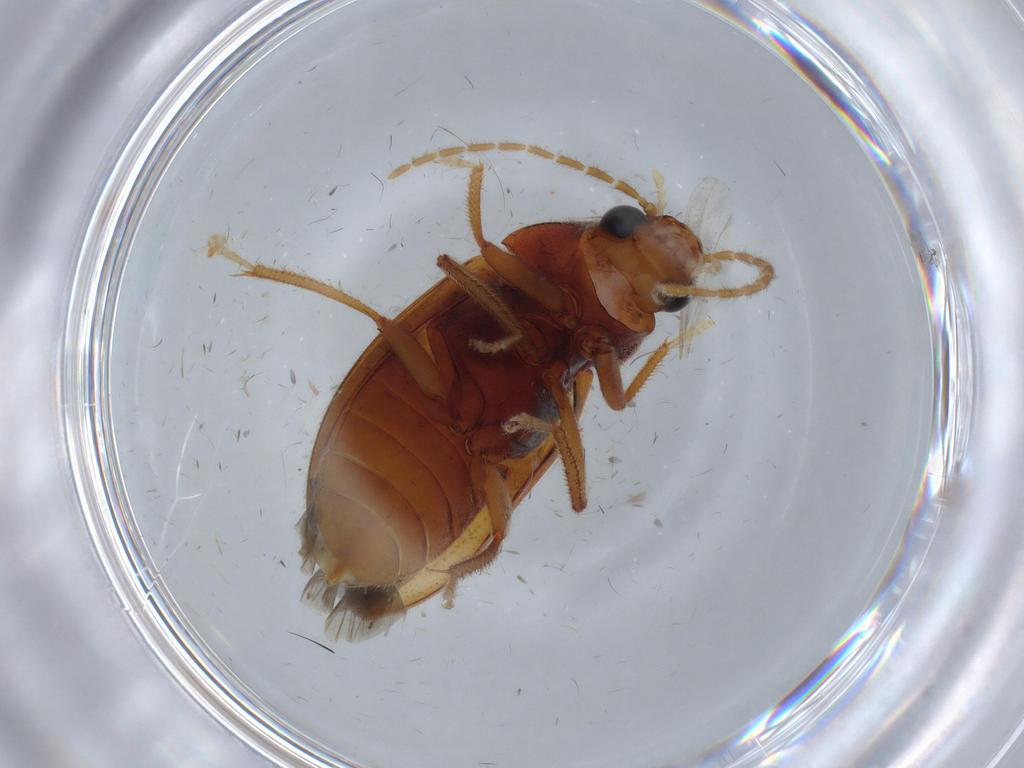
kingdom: Animalia
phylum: Arthropoda
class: Insecta
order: Coleoptera
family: Ptilodactylidae
